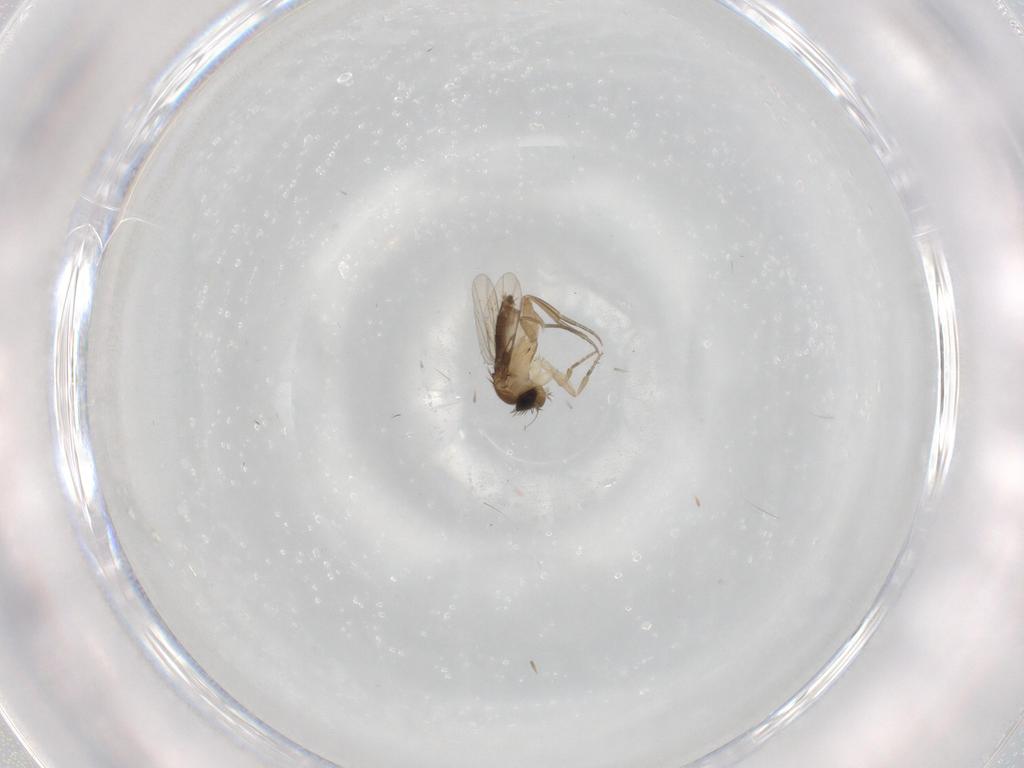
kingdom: Animalia
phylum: Arthropoda
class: Insecta
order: Diptera
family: Phoridae
